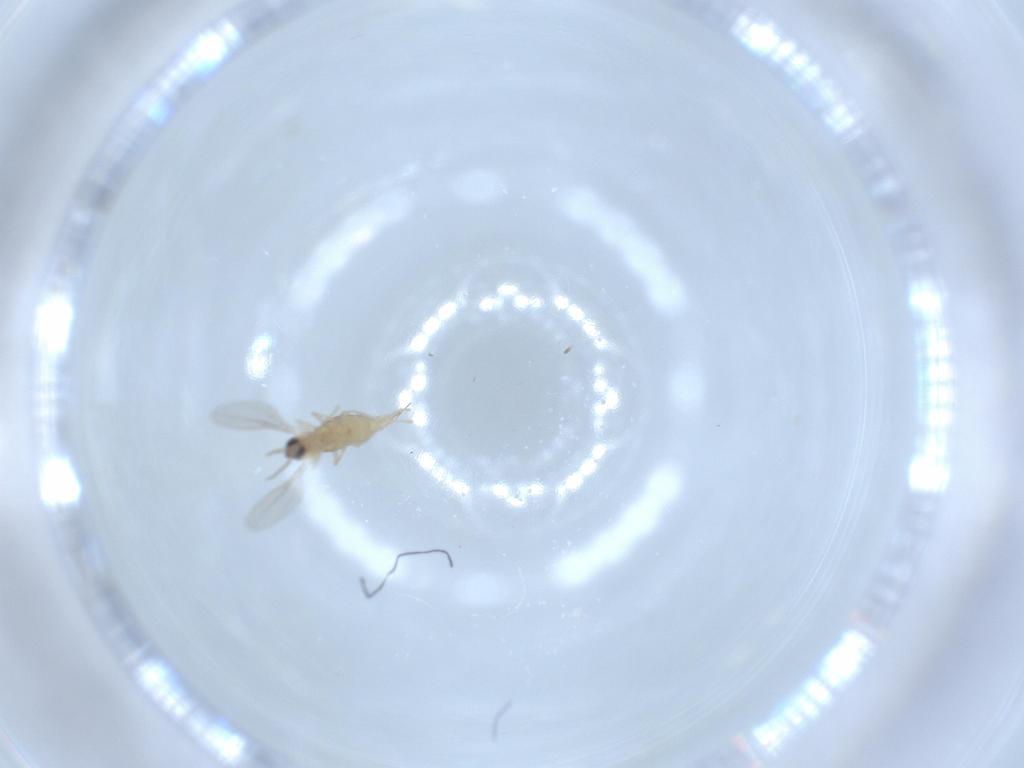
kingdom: Animalia
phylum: Arthropoda
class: Insecta
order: Diptera
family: Cecidomyiidae
